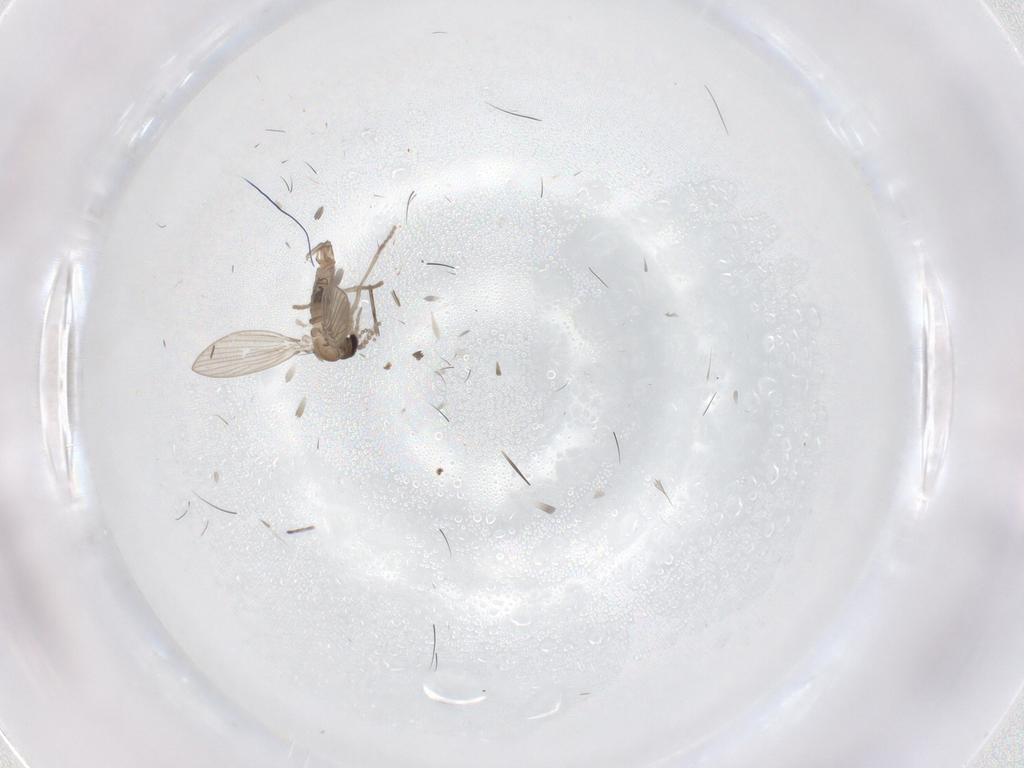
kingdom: Animalia
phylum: Arthropoda
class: Insecta
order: Diptera
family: Psychodidae
